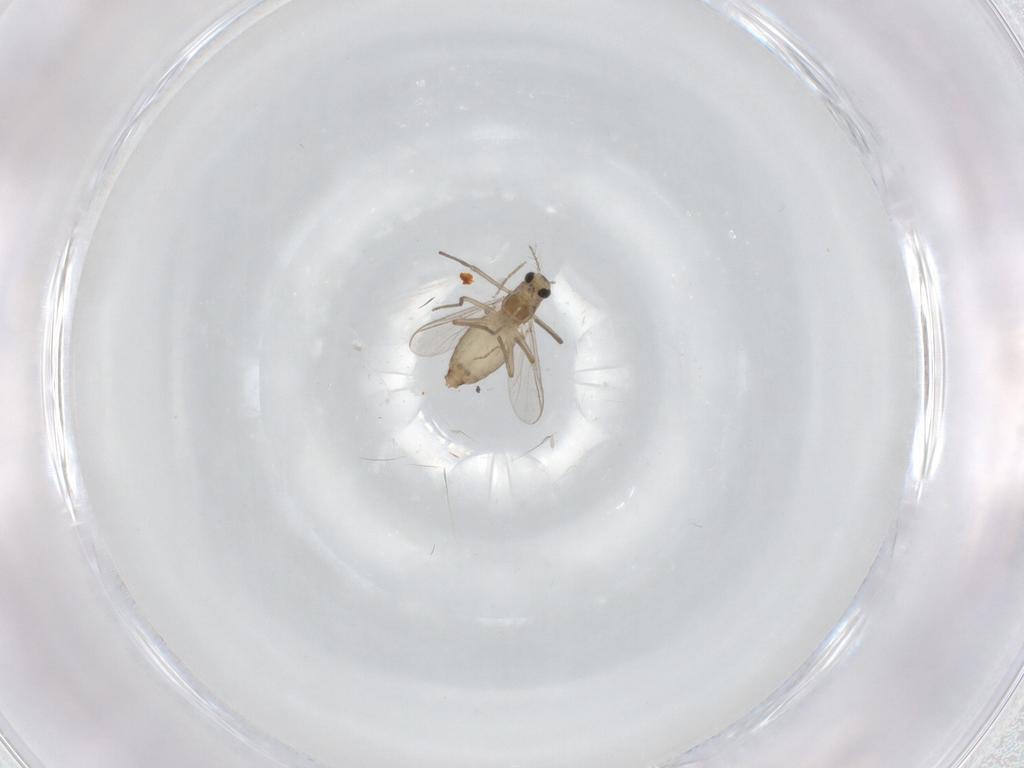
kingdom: Animalia
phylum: Arthropoda
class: Insecta
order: Diptera
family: Chironomidae
